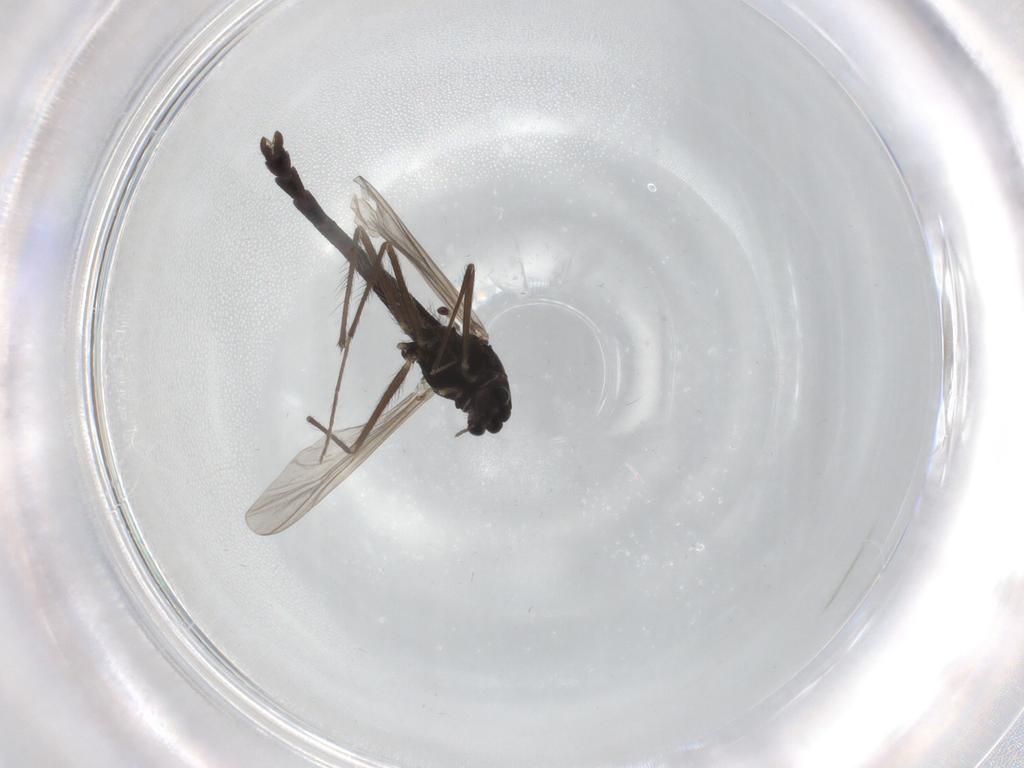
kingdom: Animalia
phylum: Arthropoda
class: Insecta
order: Diptera
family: Chironomidae
